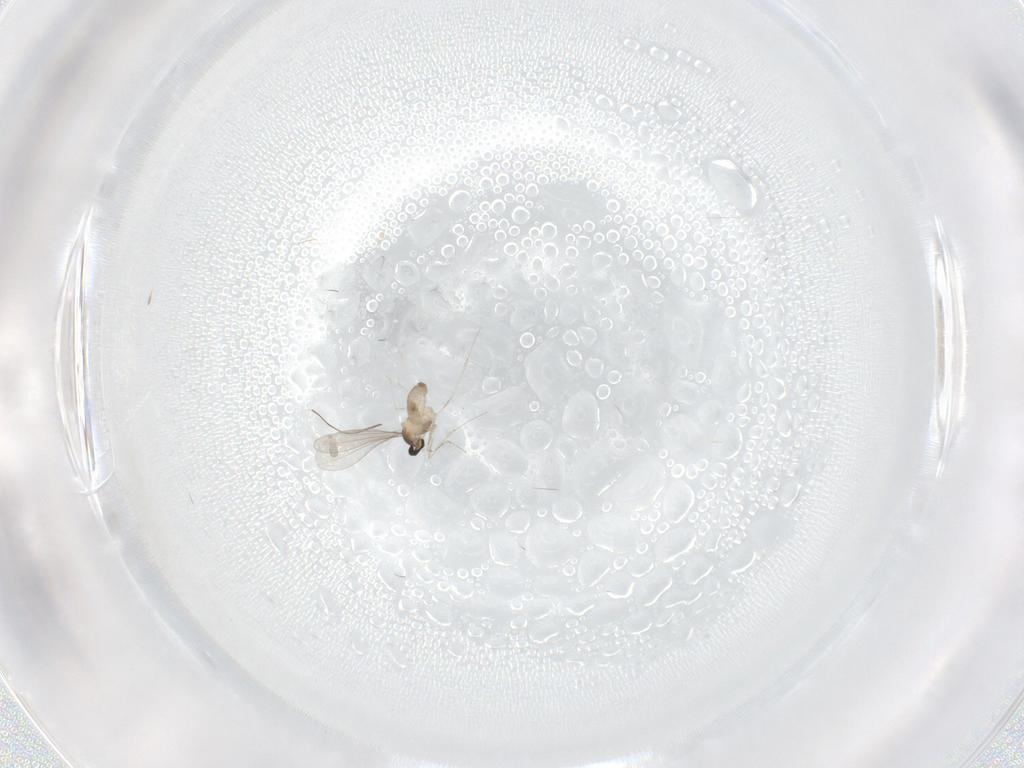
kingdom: Animalia
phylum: Arthropoda
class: Insecta
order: Diptera
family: Cecidomyiidae
